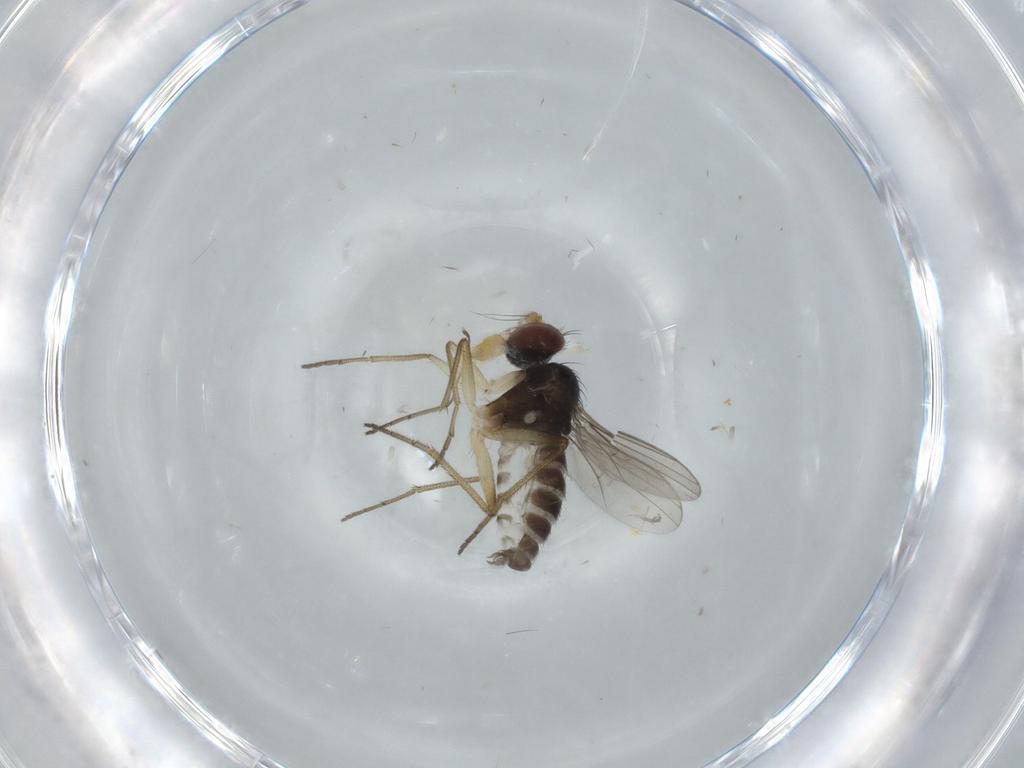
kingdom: Animalia
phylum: Arthropoda
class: Insecta
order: Diptera
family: Dolichopodidae
